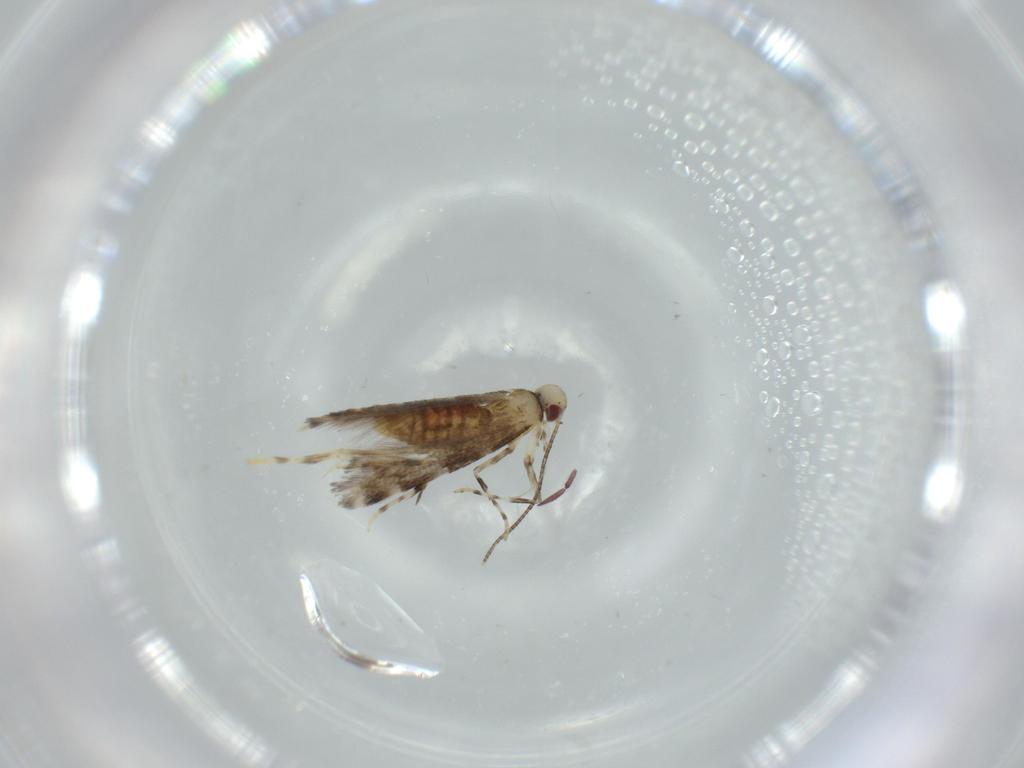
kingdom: Animalia
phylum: Arthropoda
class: Insecta
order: Lepidoptera
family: Gracillariidae
